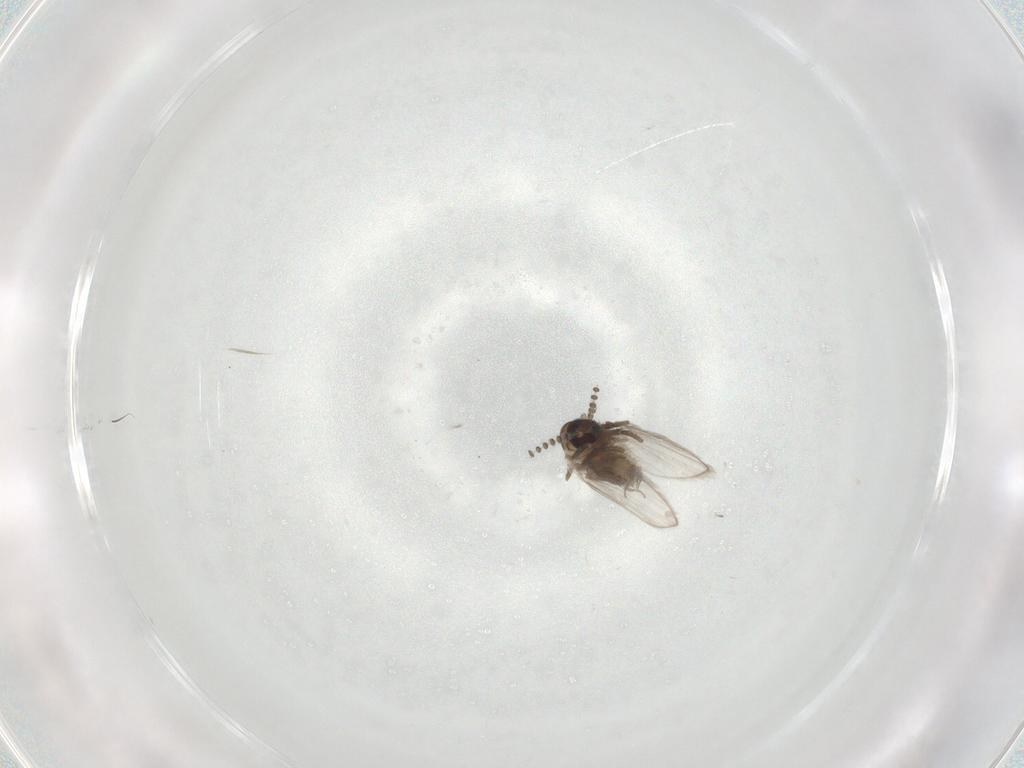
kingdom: Animalia
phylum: Arthropoda
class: Insecta
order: Diptera
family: Psychodidae
